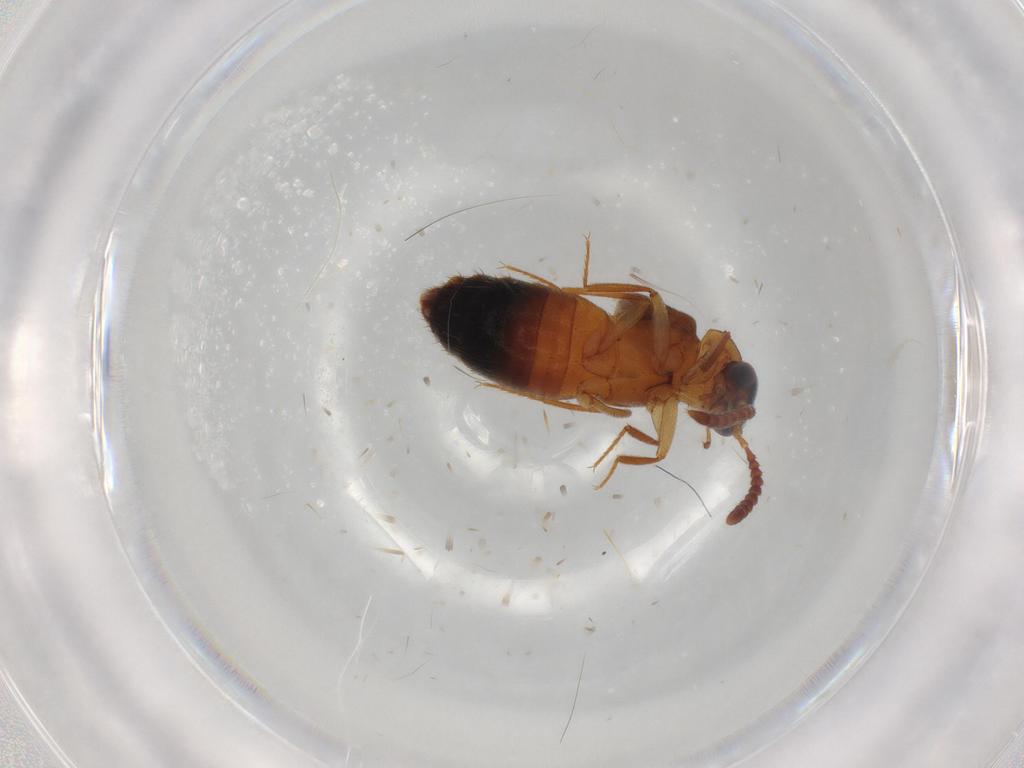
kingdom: Animalia
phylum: Arthropoda
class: Insecta
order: Coleoptera
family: Staphylinidae
